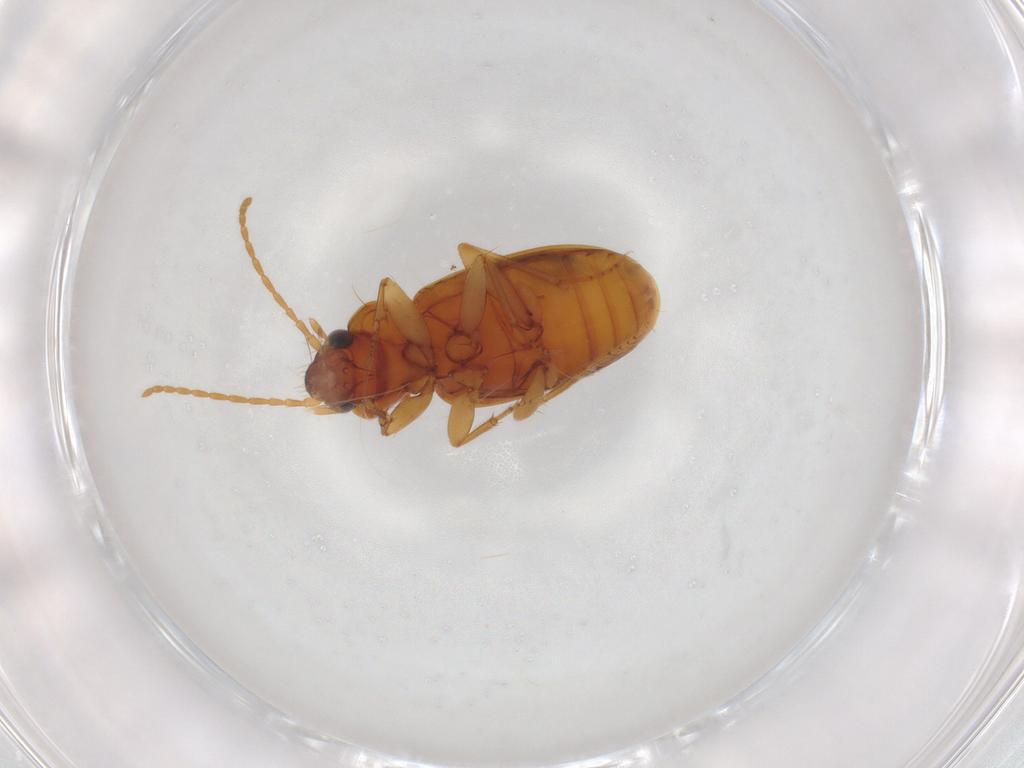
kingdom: Animalia
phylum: Arthropoda
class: Insecta
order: Coleoptera
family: Carabidae
